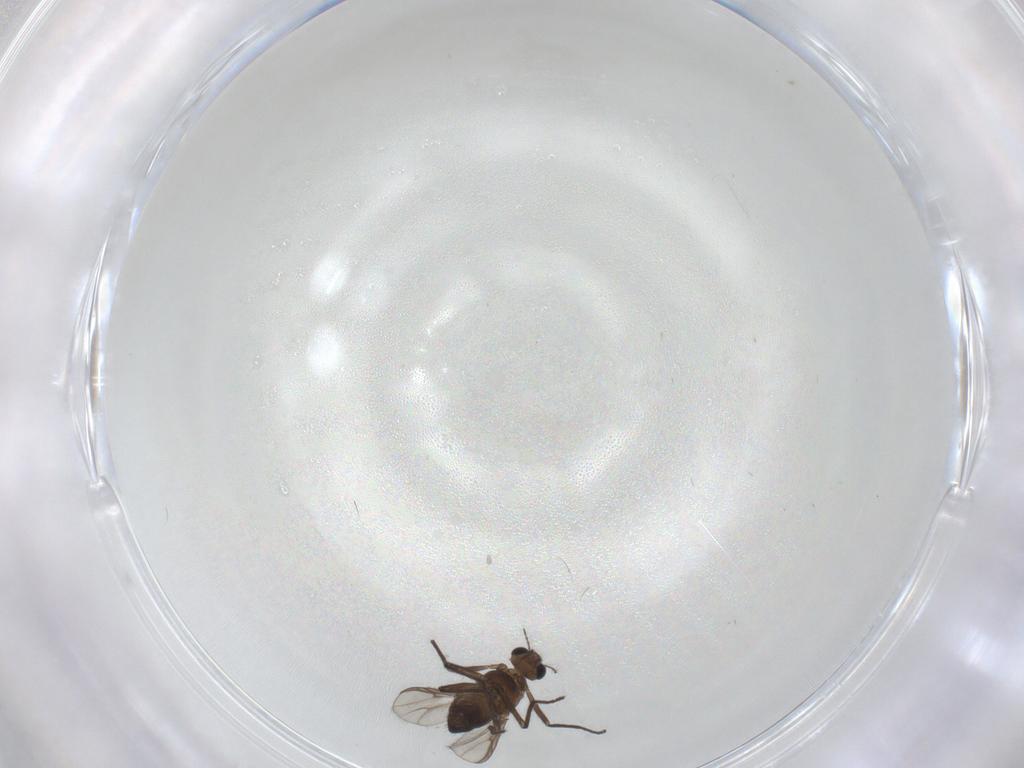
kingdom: Animalia
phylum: Arthropoda
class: Insecta
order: Diptera
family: Chironomidae
